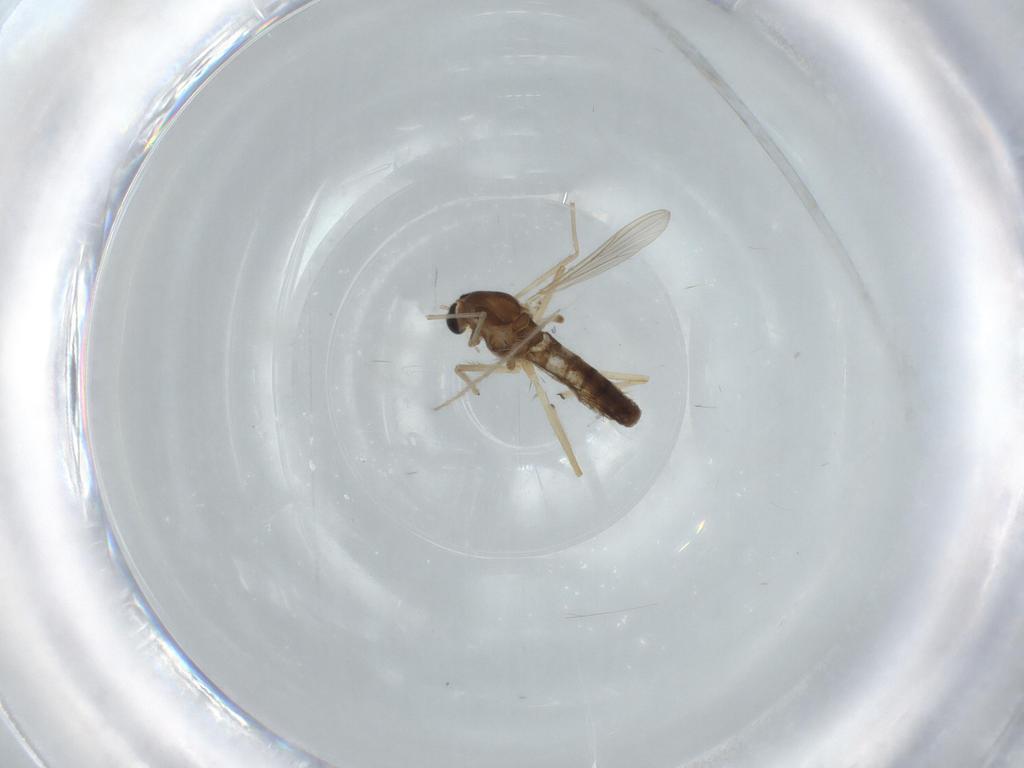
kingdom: Animalia
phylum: Arthropoda
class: Insecta
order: Diptera
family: Chironomidae
